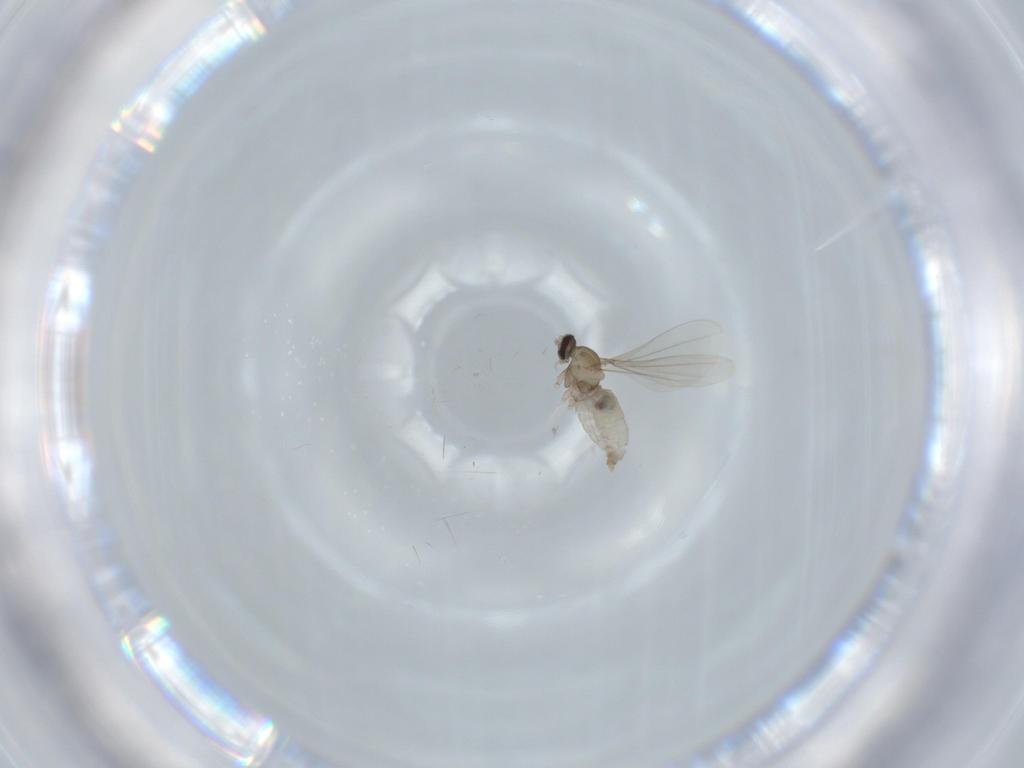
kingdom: Animalia
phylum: Arthropoda
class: Insecta
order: Diptera
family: Cecidomyiidae
